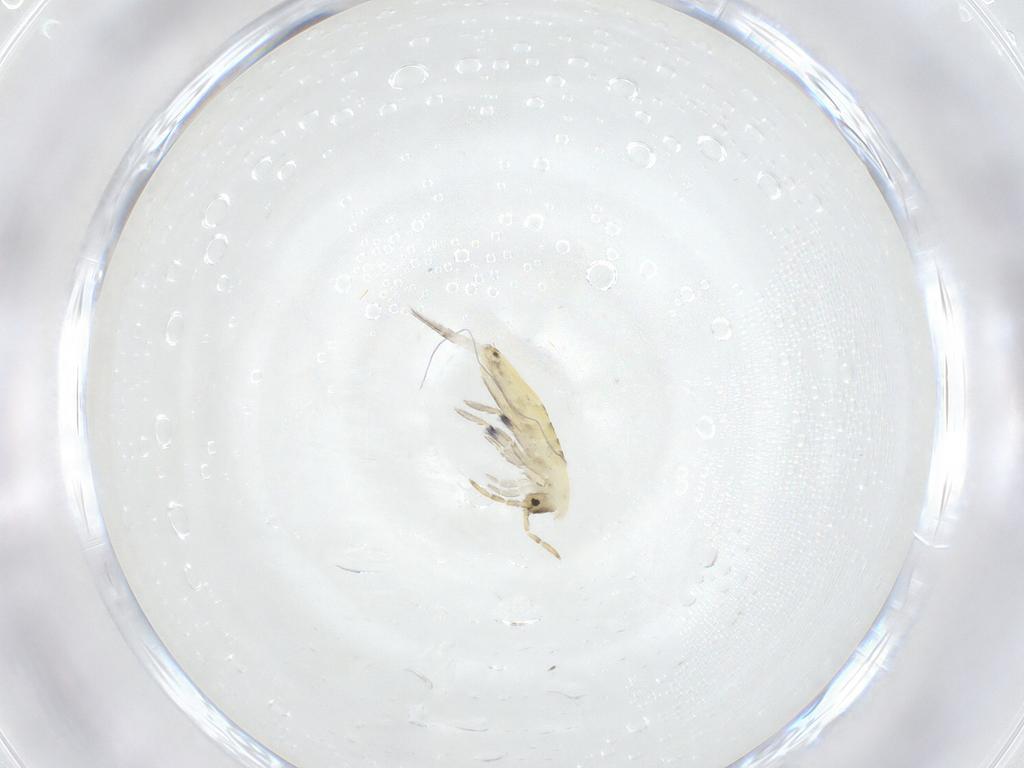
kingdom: Animalia
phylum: Arthropoda
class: Collembola
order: Entomobryomorpha
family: Entomobryidae
